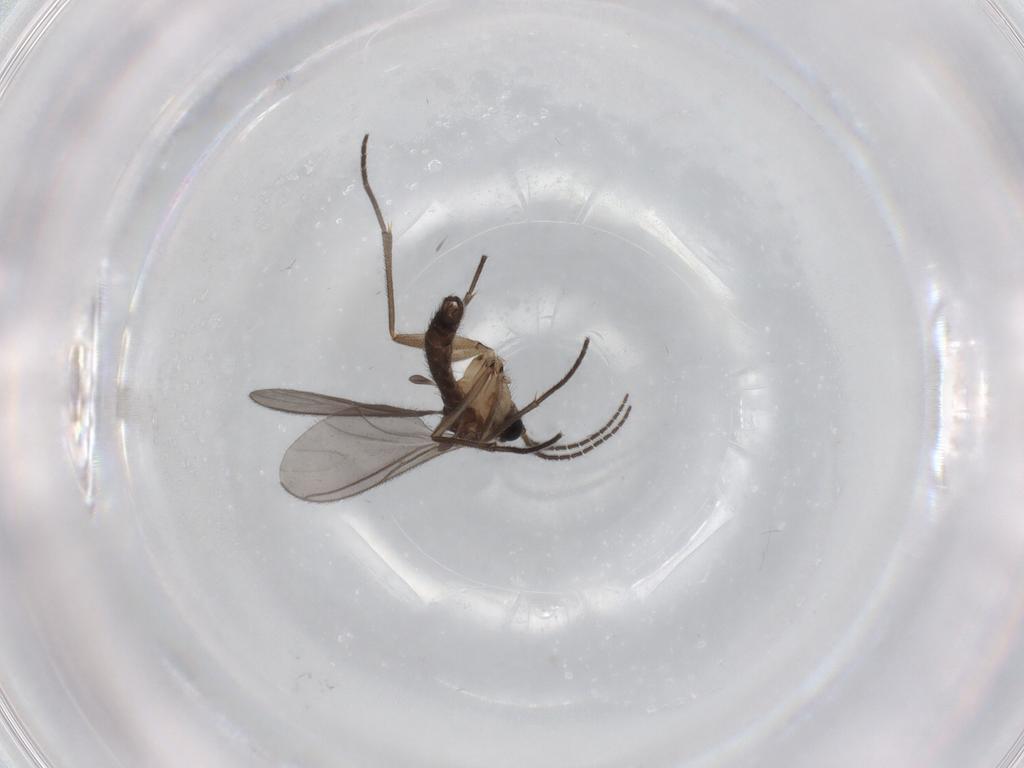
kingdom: Animalia
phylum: Arthropoda
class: Insecta
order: Diptera
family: Sciaridae
